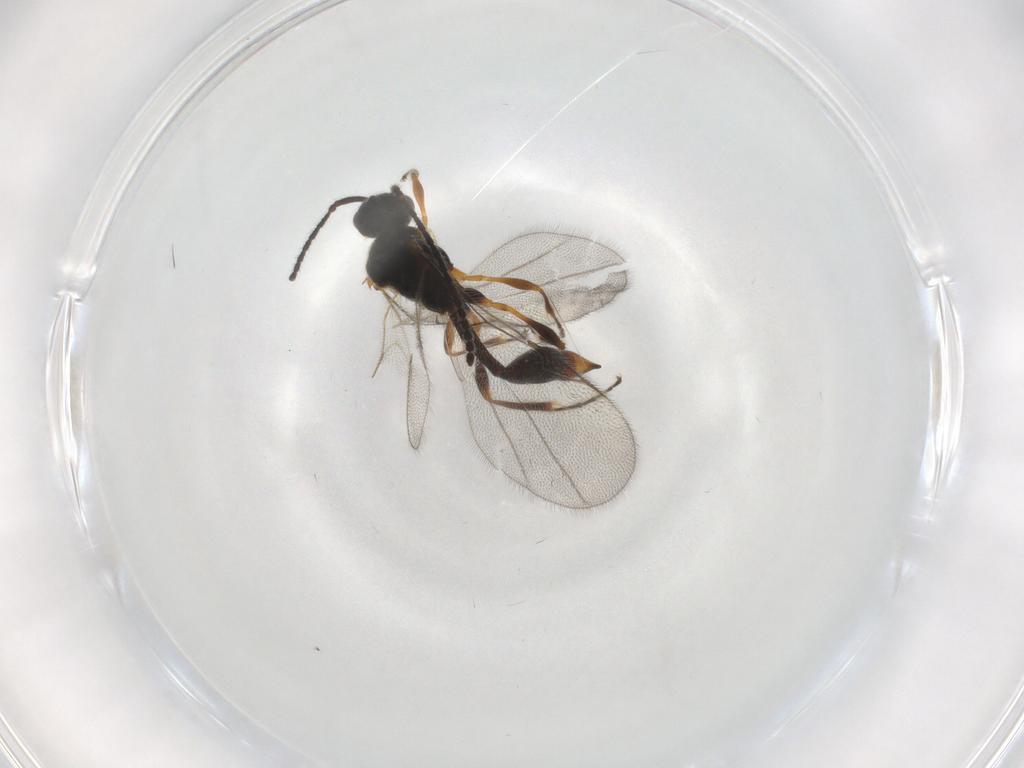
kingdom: Animalia
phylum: Arthropoda
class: Insecta
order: Hymenoptera
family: Diapriidae
